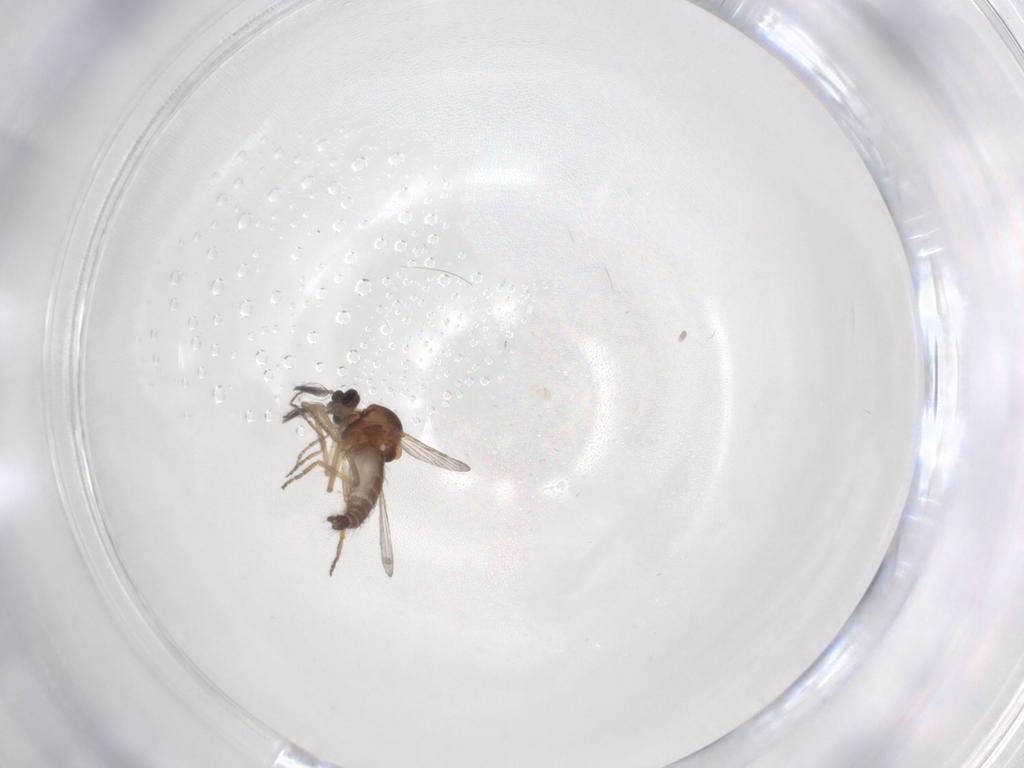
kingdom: Animalia
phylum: Arthropoda
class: Insecta
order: Diptera
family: Ceratopogonidae
